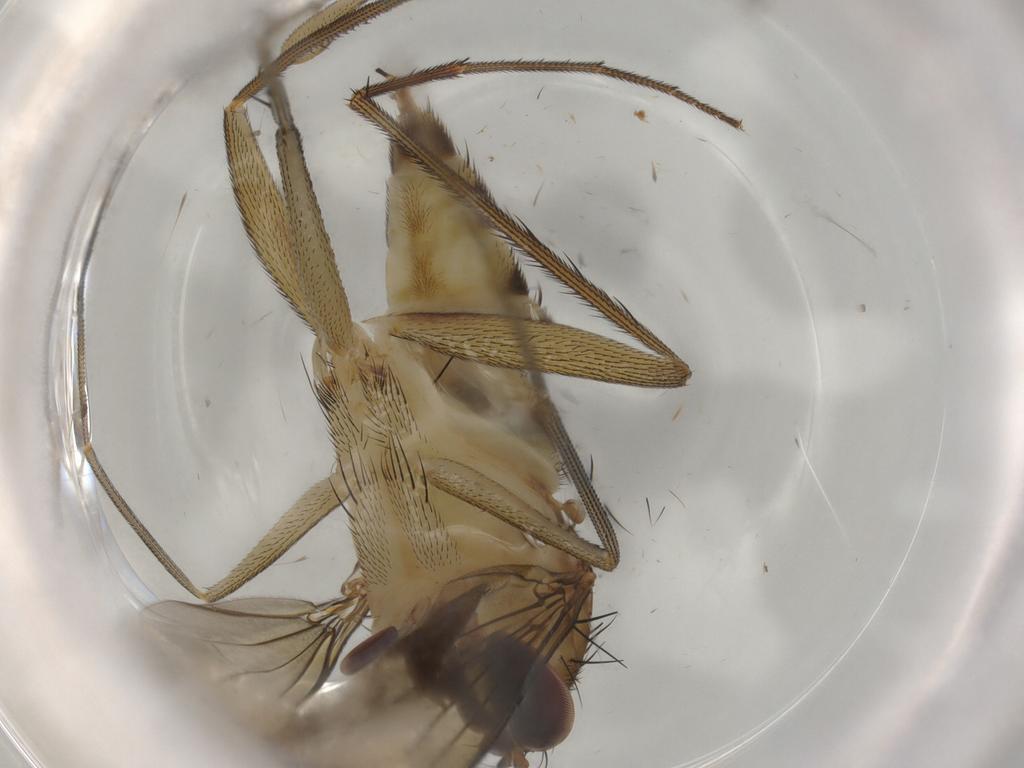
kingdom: Animalia
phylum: Arthropoda
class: Insecta
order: Diptera
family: Dolichopodidae
